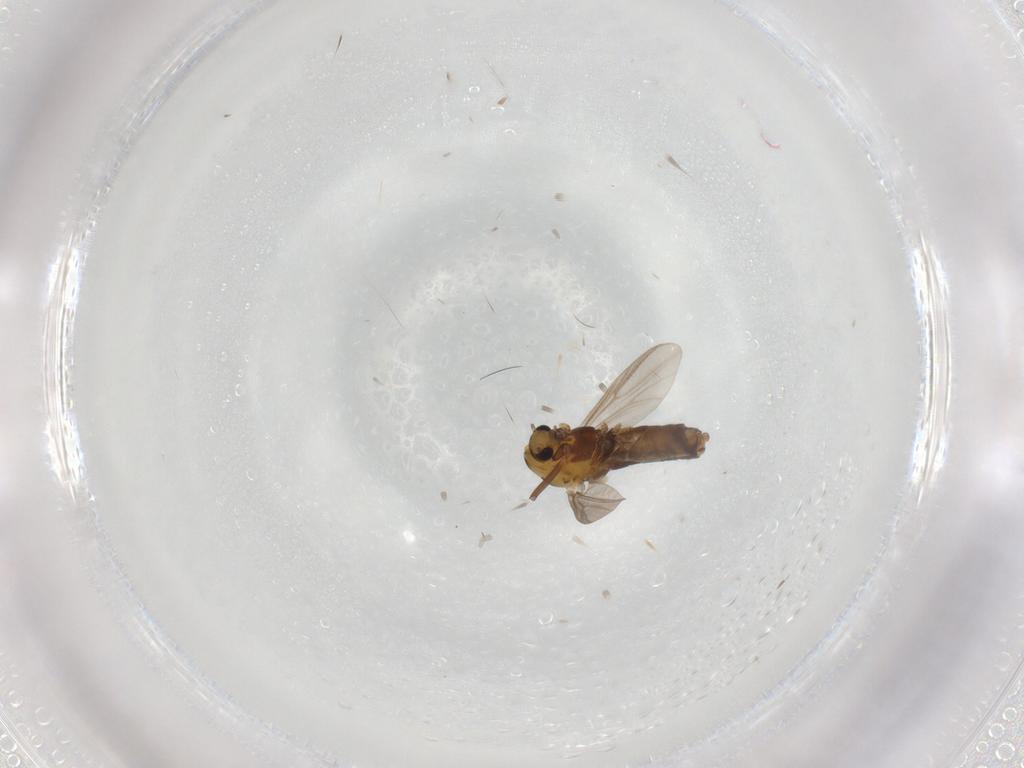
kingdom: Animalia
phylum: Arthropoda
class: Insecta
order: Diptera
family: Chironomidae
